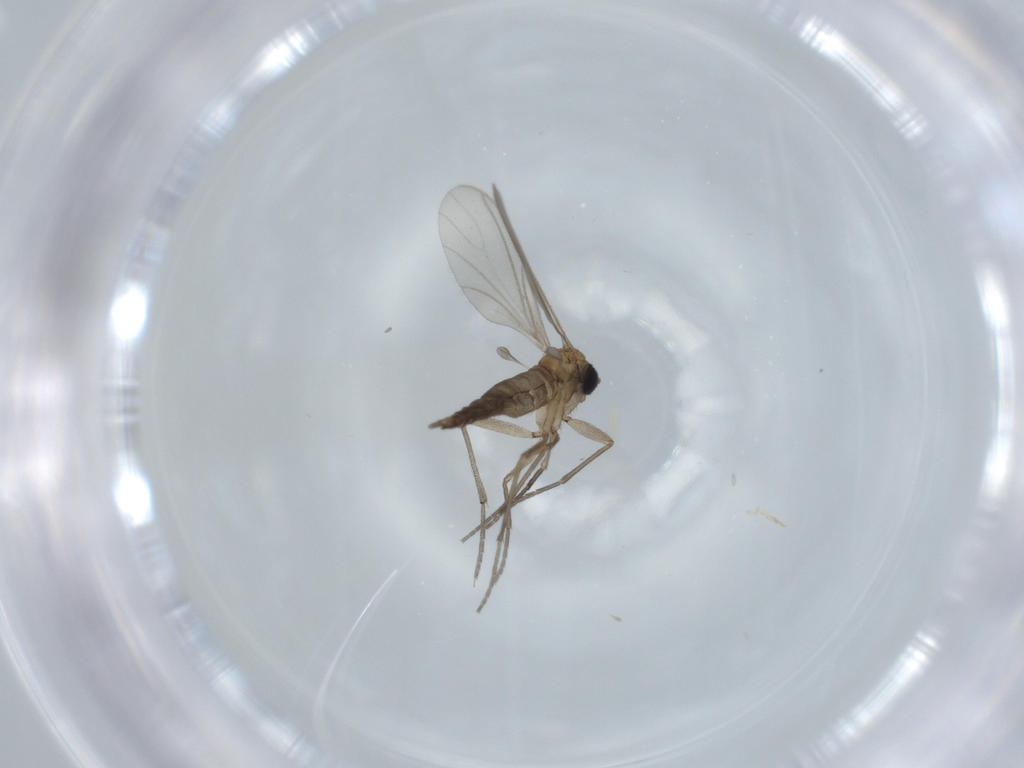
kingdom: Animalia
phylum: Arthropoda
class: Insecta
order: Diptera
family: Sciaridae
